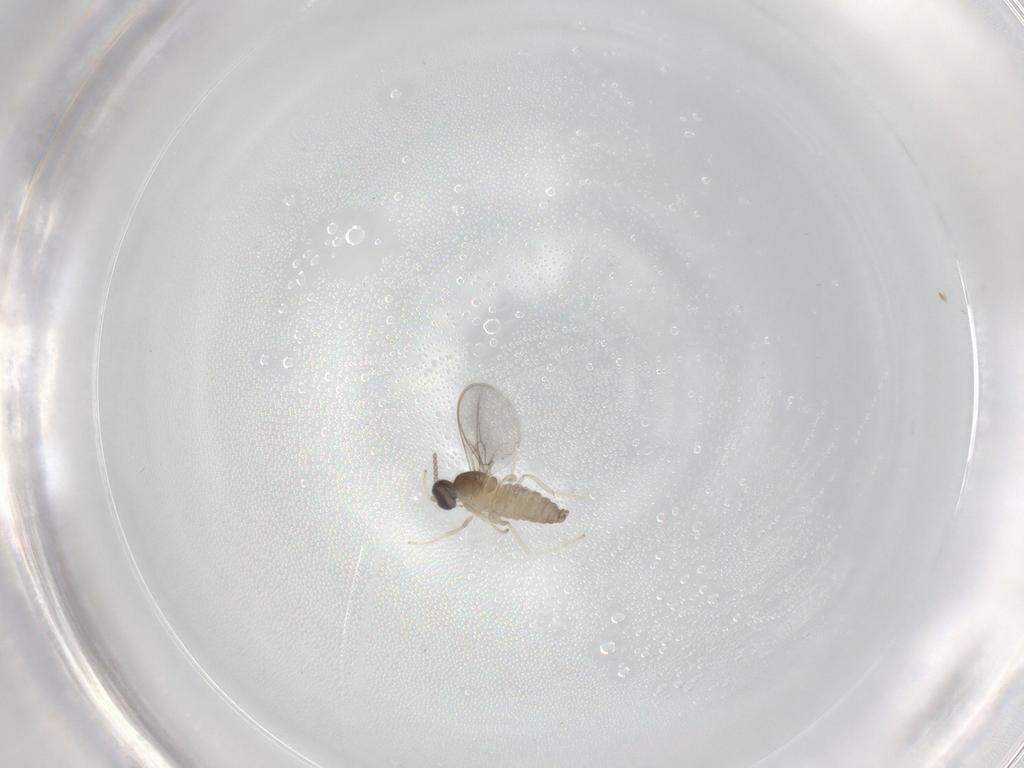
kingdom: Animalia
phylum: Arthropoda
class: Insecta
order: Diptera
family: Cecidomyiidae
